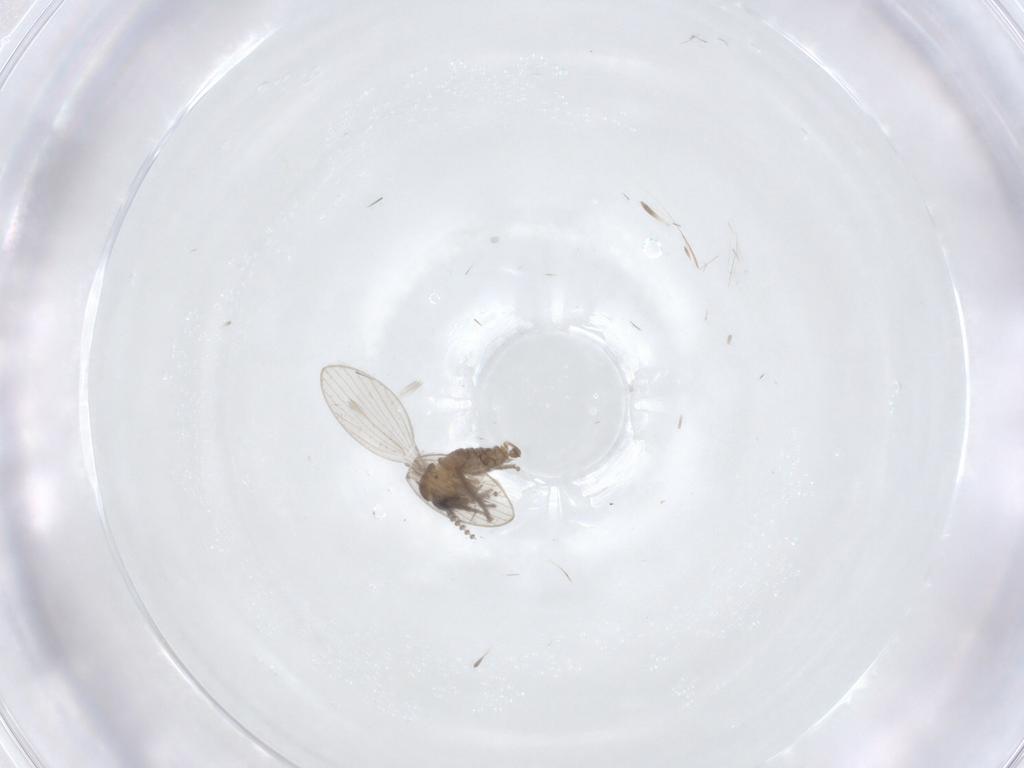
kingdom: Animalia
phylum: Arthropoda
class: Insecta
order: Diptera
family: Psychodidae
